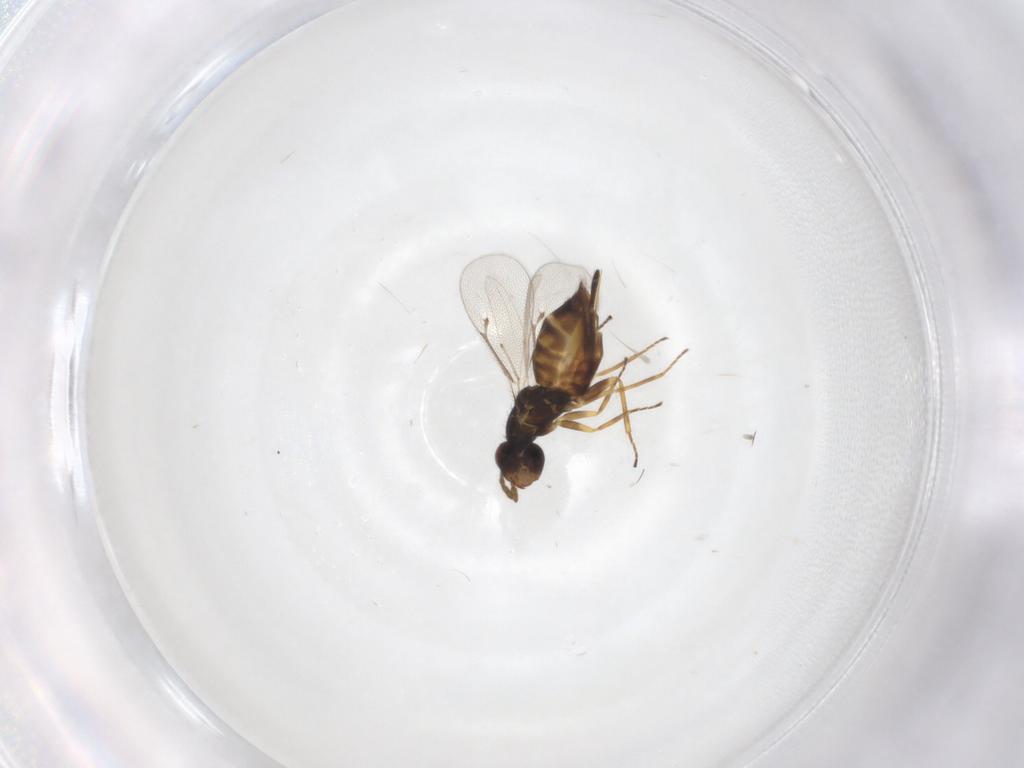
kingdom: Animalia
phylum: Arthropoda
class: Insecta
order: Hymenoptera
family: Eulophidae
